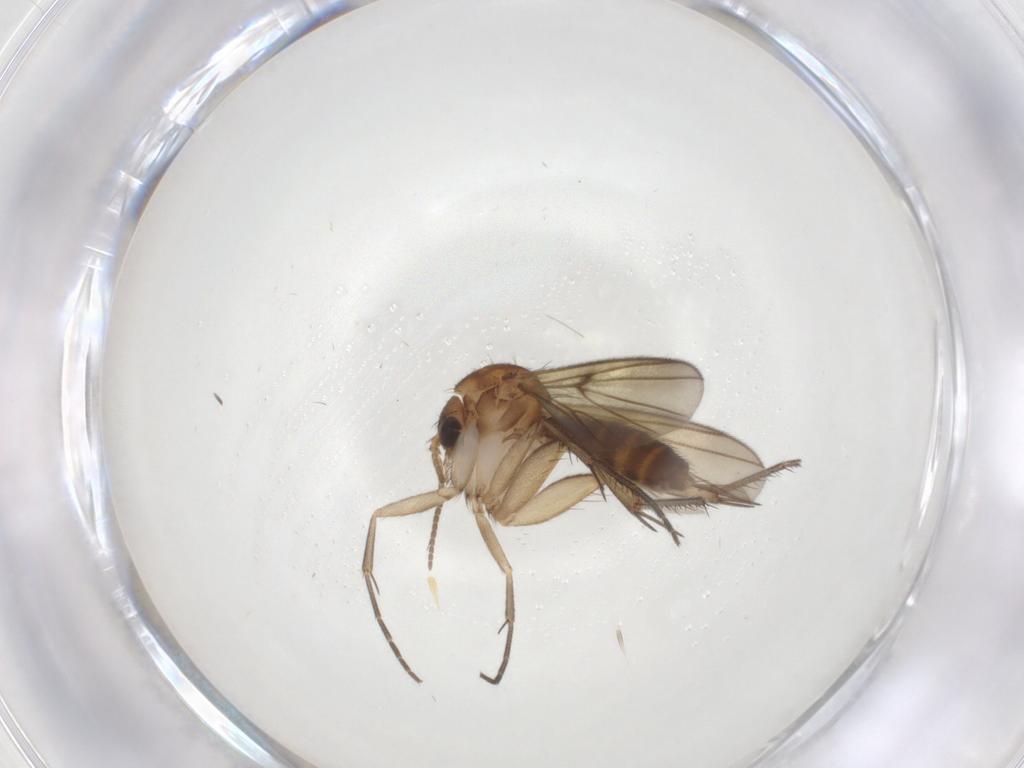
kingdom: Animalia
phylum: Arthropoda
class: Insecta
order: Diptera
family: Mycetophilidae
